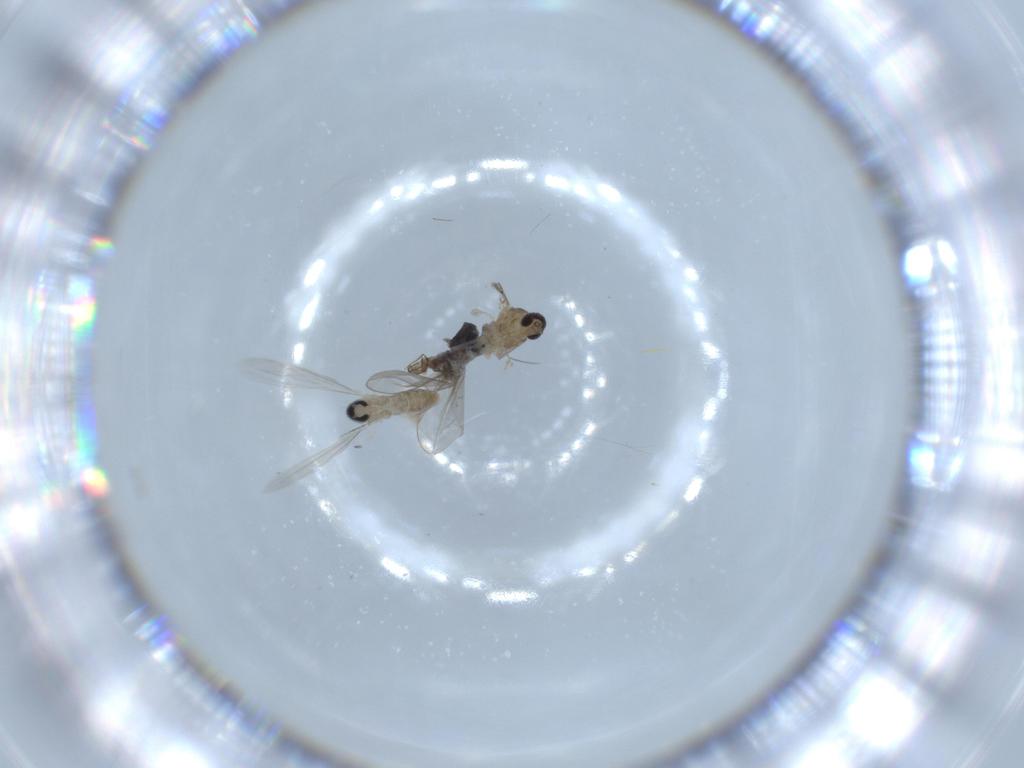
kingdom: Animalia
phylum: Arthropoda
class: Insecta
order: Diptera
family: Cecidomyiidae
